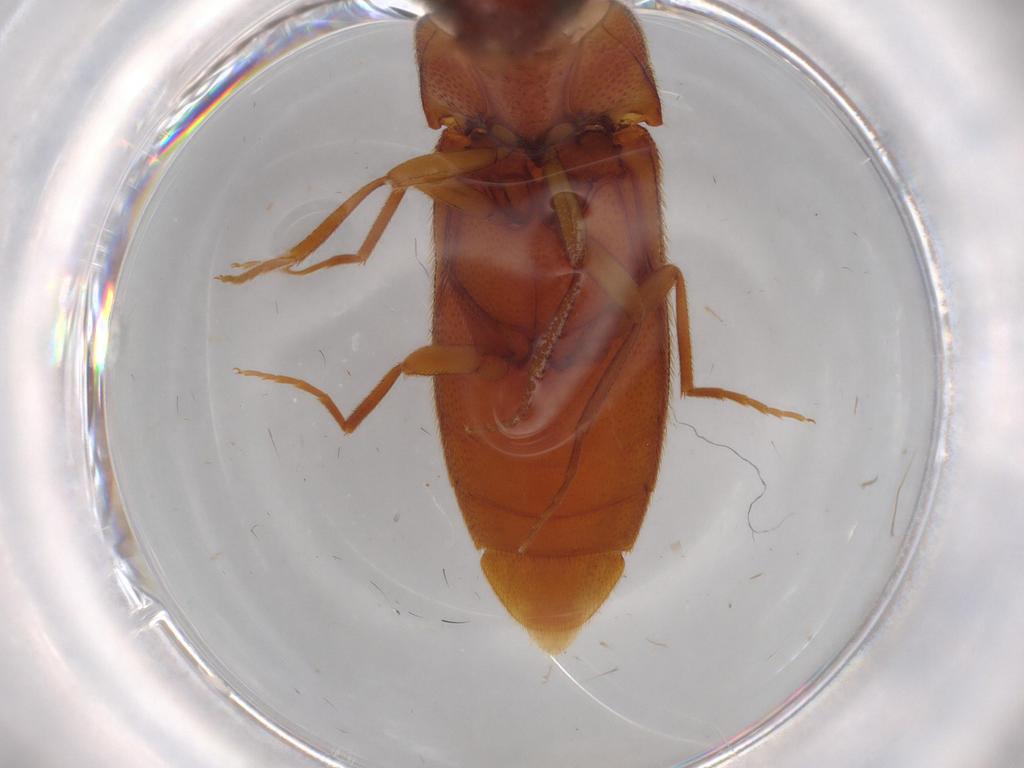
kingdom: Animalia
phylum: Arthropoda
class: Insecta
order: Coleoptera
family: Elateridae
